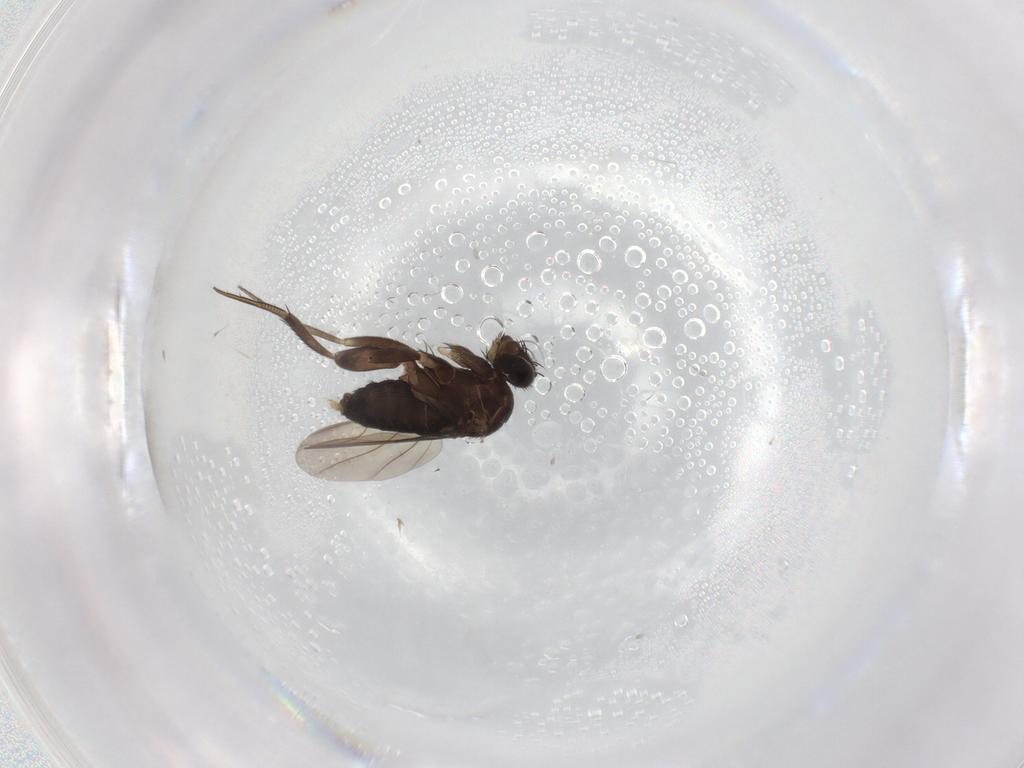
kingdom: Animalia
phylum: Arthropoda
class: Insecta
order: Diptera
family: Phoridae
